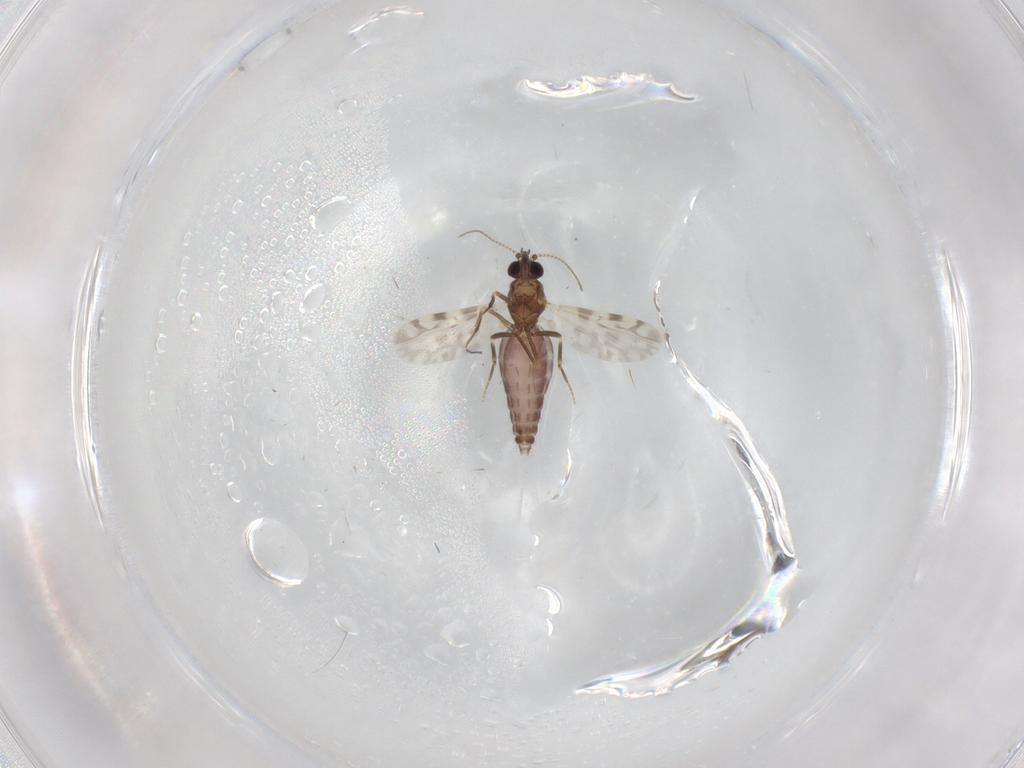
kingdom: Animalia
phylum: Arthropoda
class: Insecta
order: Diptera
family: Ceratopogonidae
